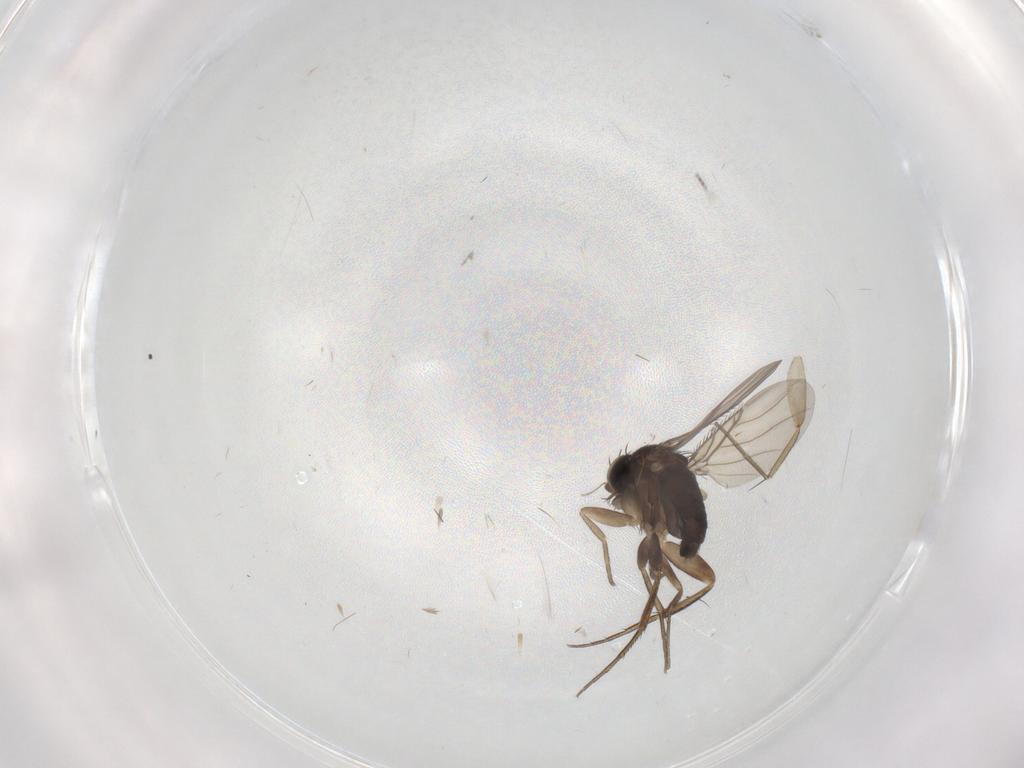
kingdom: Animalia
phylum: Arthropoda
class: Insecta
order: Diptera
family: Phoridae
